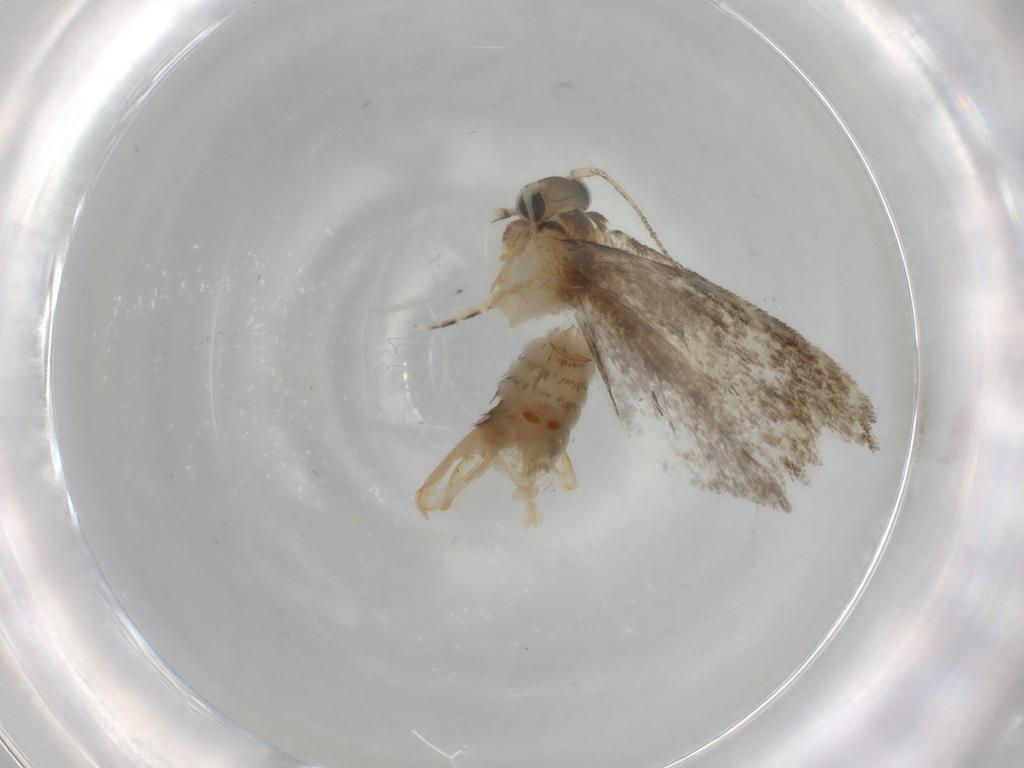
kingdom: Animalia
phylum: Arthropoda
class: Insecta
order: Lepidoptera
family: Tineidae
